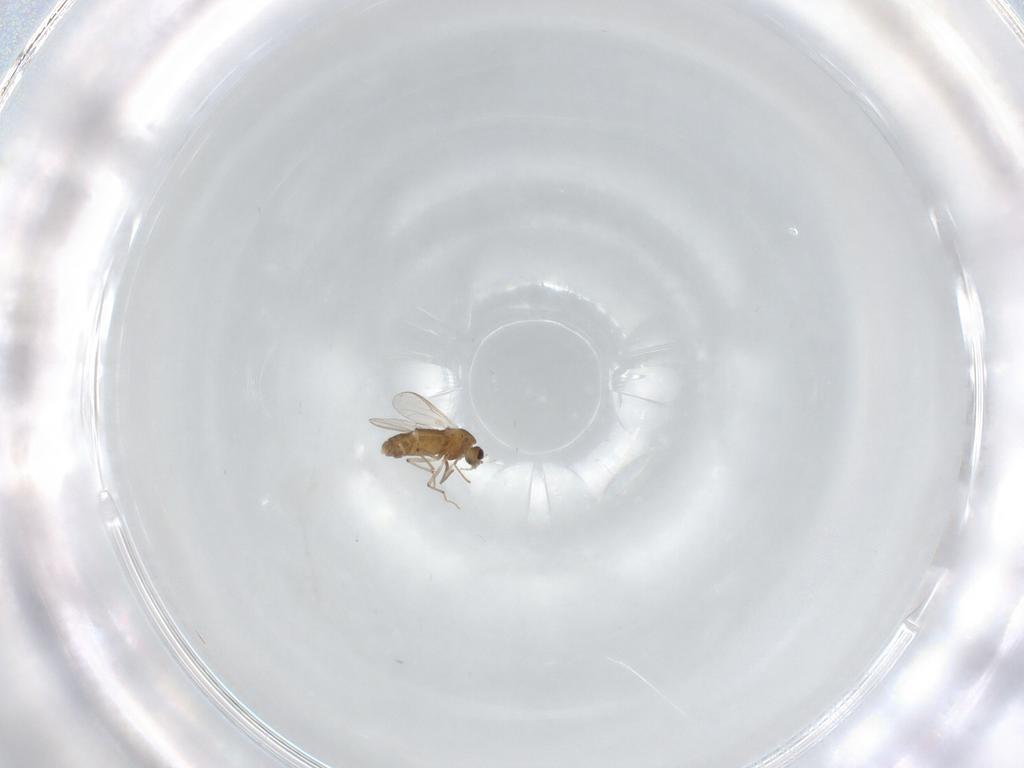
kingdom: Animalia
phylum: Arthropoda
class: Insecta
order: Diptera
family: Chironomidae
